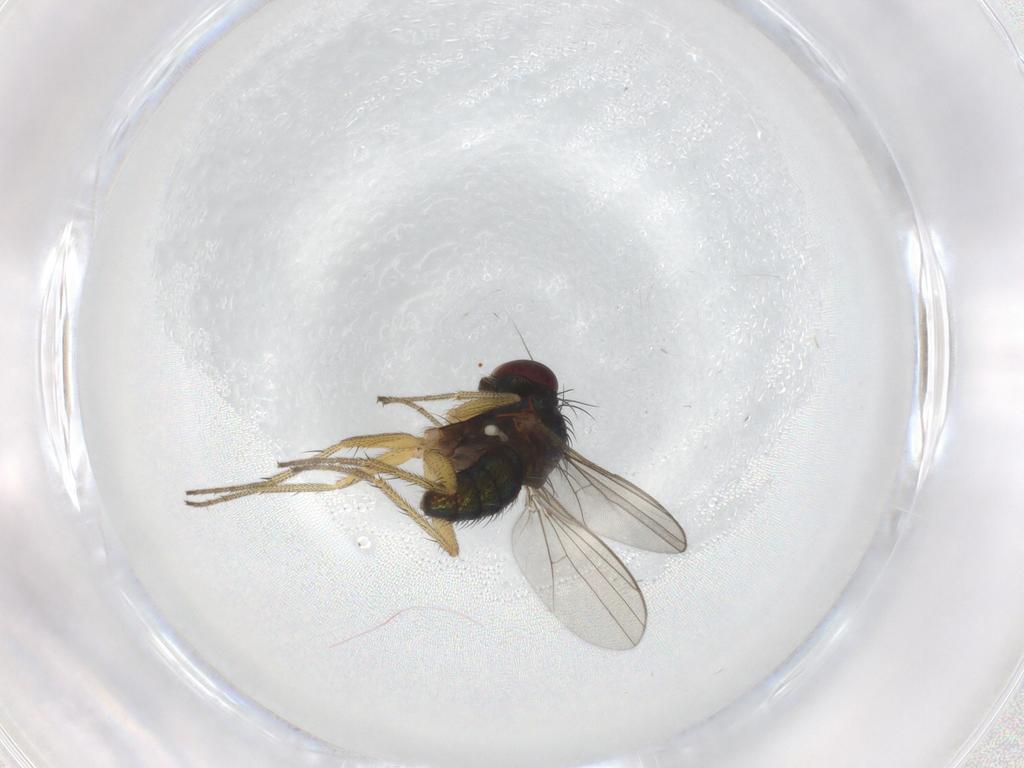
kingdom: Animalia
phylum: Arthropoda
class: Insecta
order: Diptera
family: Dolichopodidae
